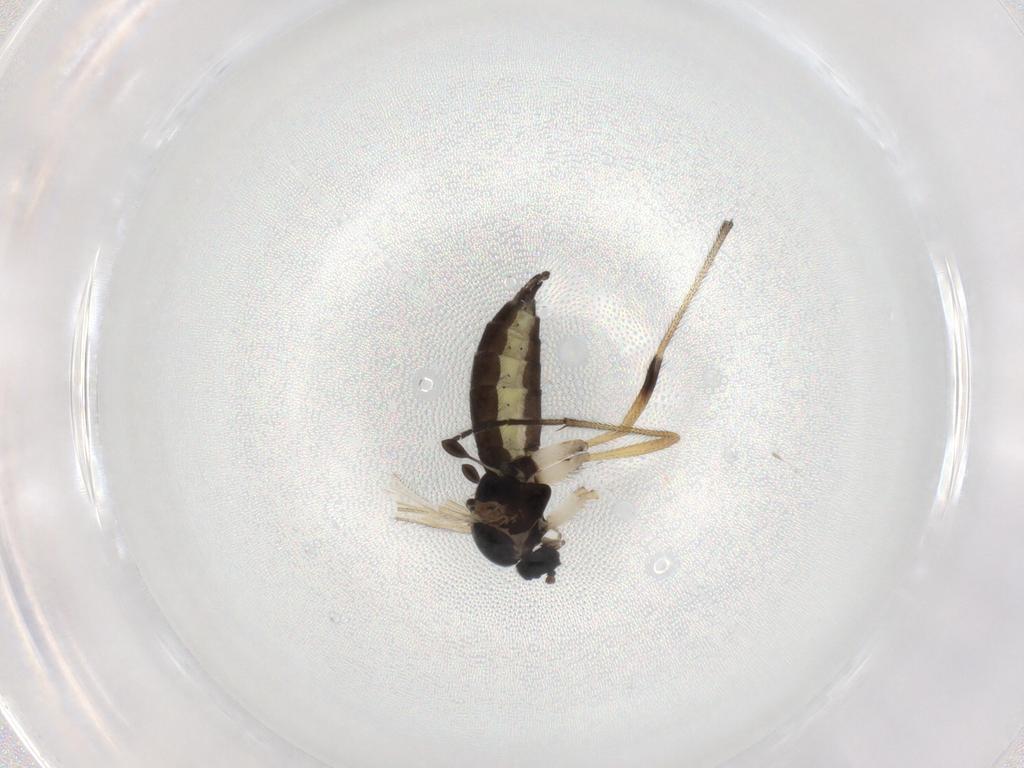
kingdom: Animalia
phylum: Arthropoda
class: Insecta
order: Diptera
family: Sciaridae
